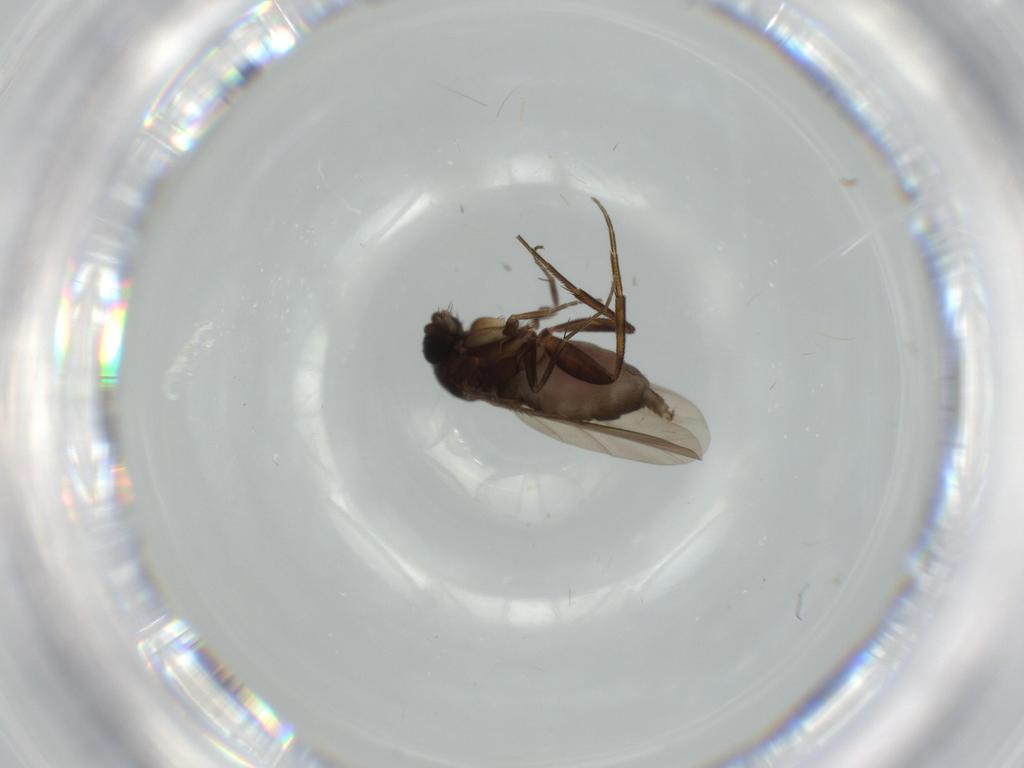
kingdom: Animalia
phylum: Arthropoda
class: Insecta
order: Diptera
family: Phoridae
